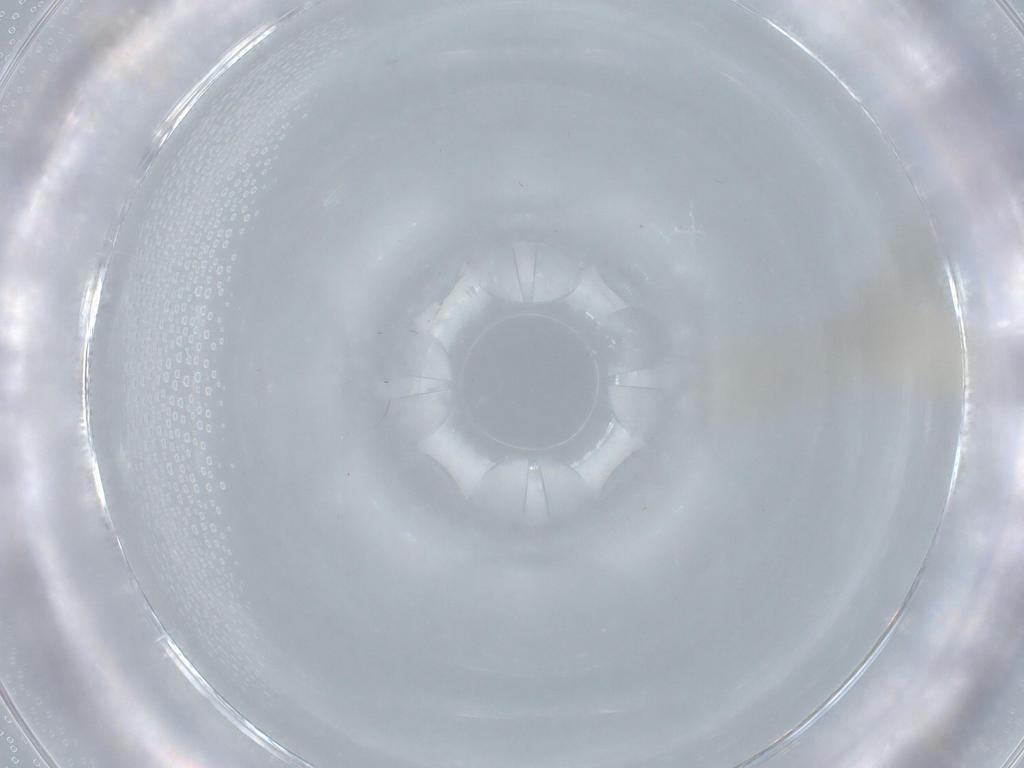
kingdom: Animalia
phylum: Arthropoda
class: Insecta
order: Diptera
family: Cecidomyiidae
